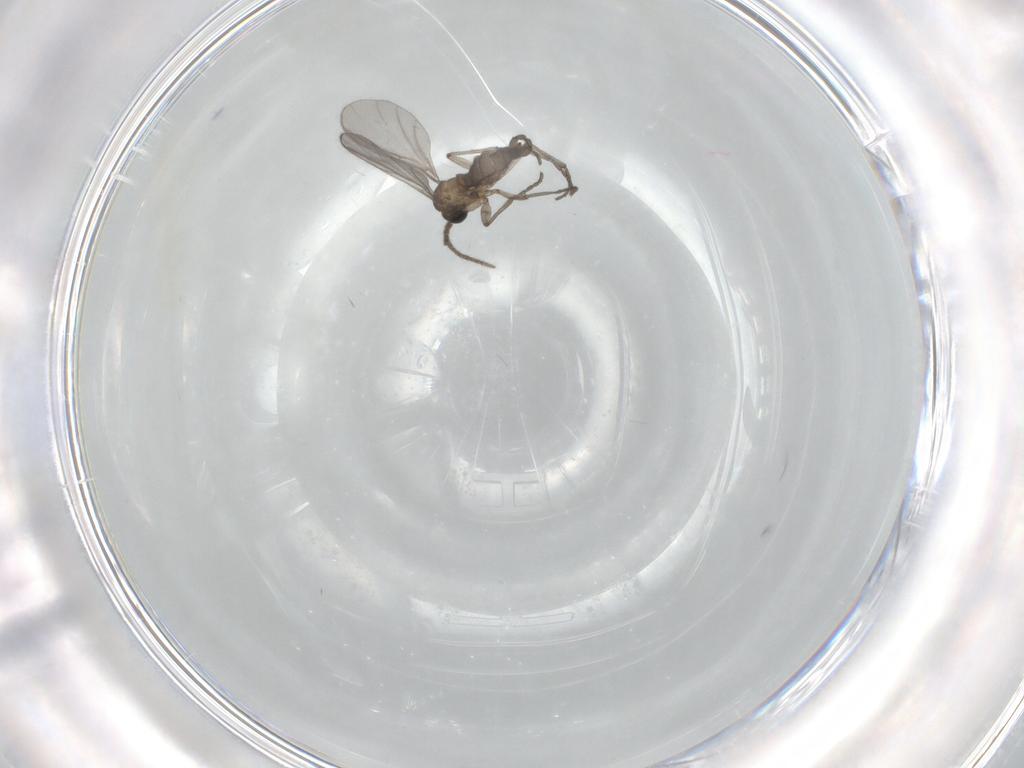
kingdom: Animalia
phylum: Arthropoda
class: Insecta
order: Diptera
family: Sciaridae
